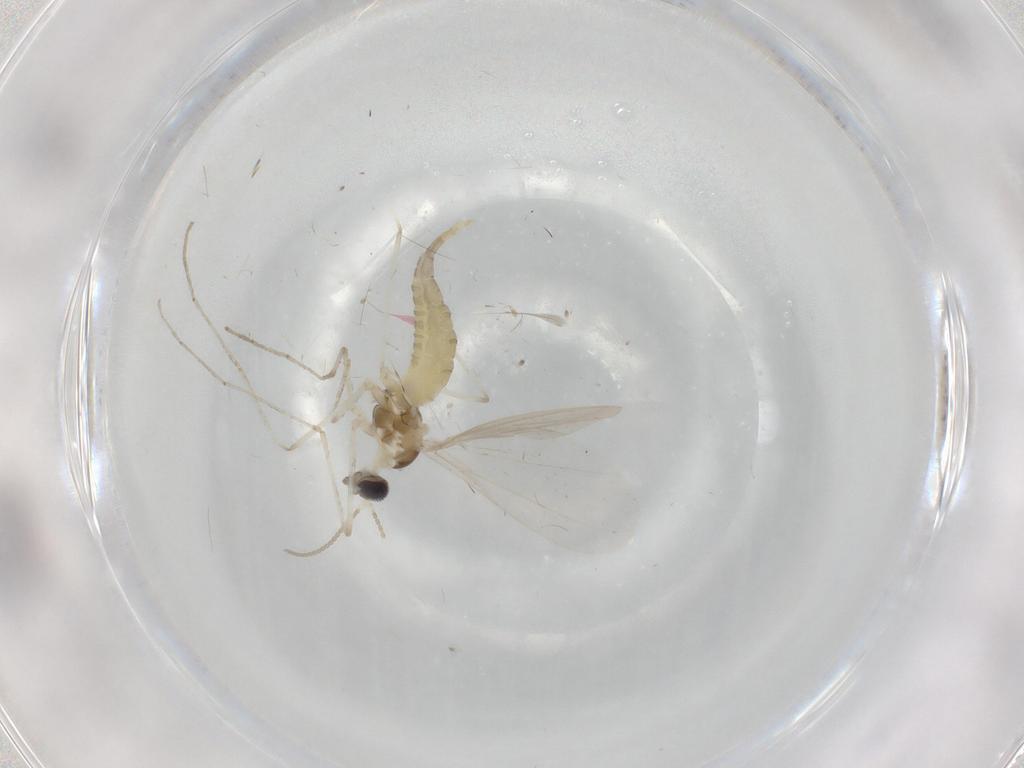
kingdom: Animalia
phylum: Arthropoda
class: Insecta
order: Diptera
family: Cecidomyiidae
